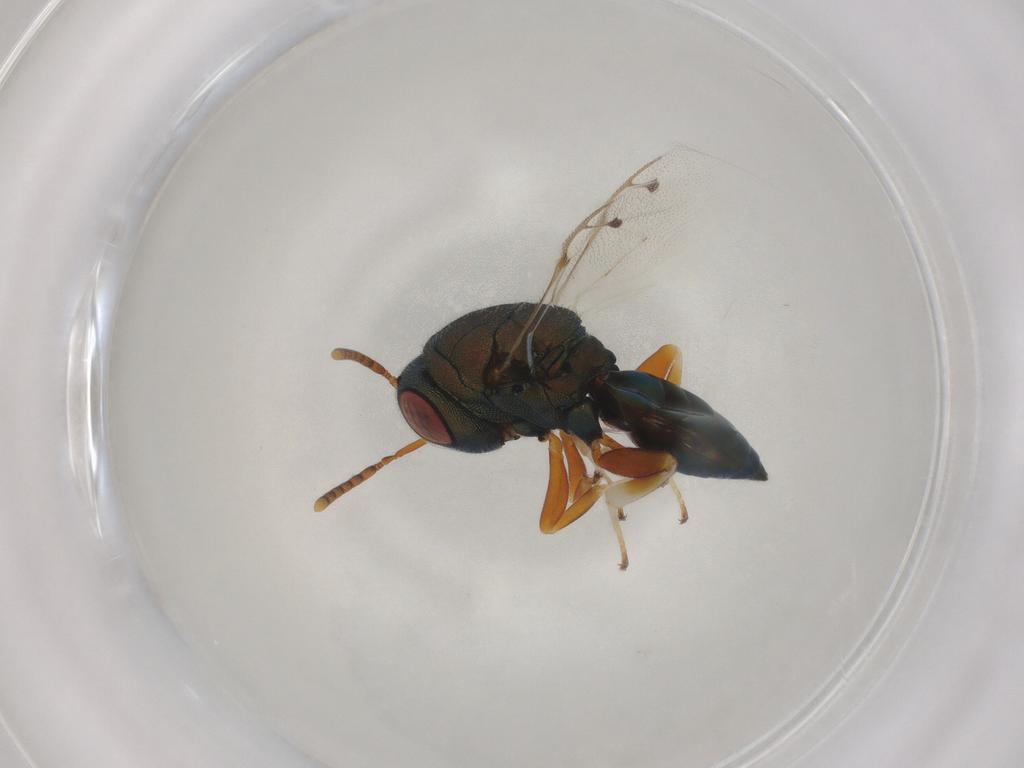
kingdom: Animalia
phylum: Arthropoda
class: Insecta
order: Hymenoptera
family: Pteromalidae
